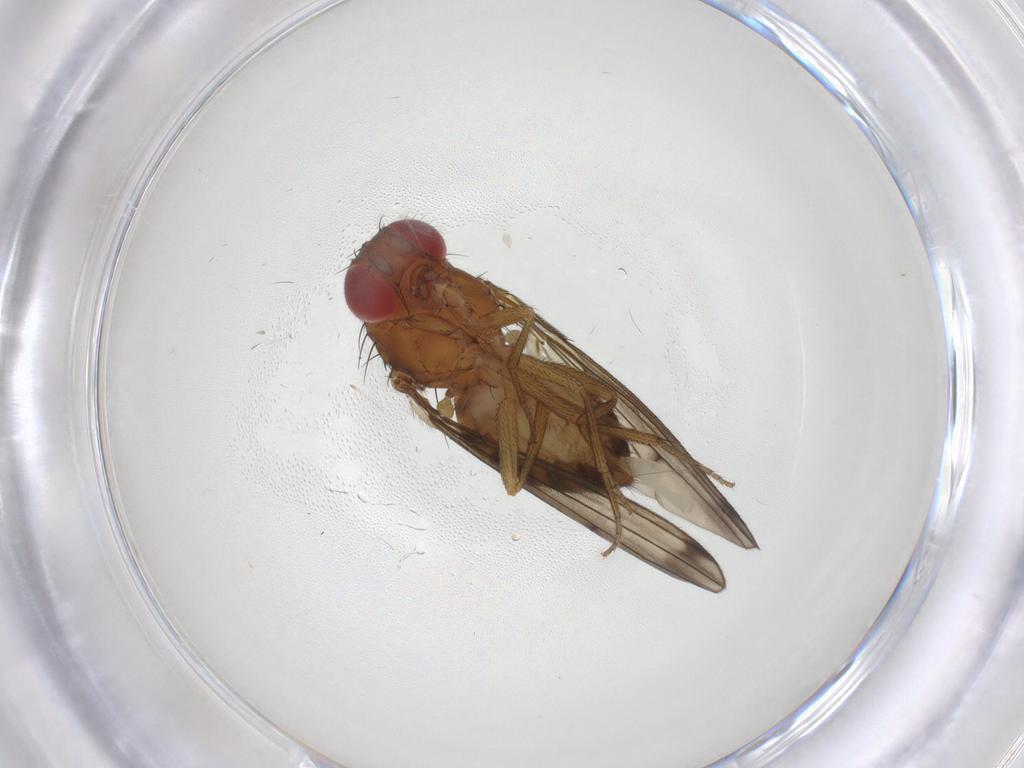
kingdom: Animalia
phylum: Arthropoda
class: Insecta
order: Diptera
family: Drosophilidae
